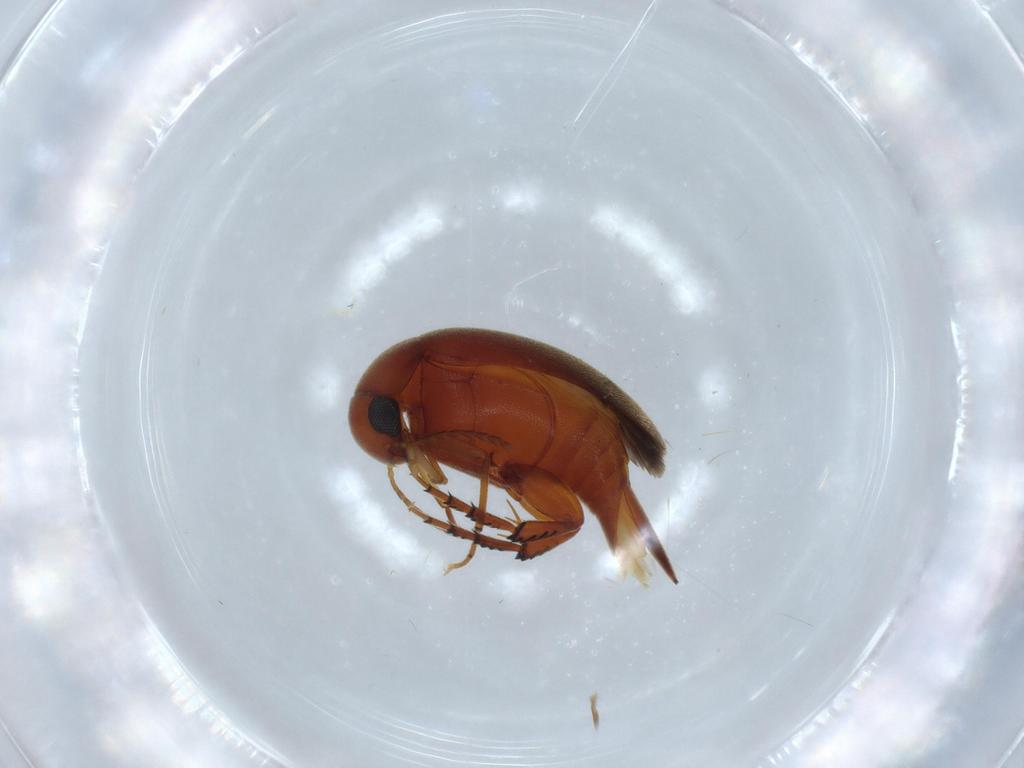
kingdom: Animalia
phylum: Arthropoda
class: Insecta
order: Coleoptera
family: Mordellidae
